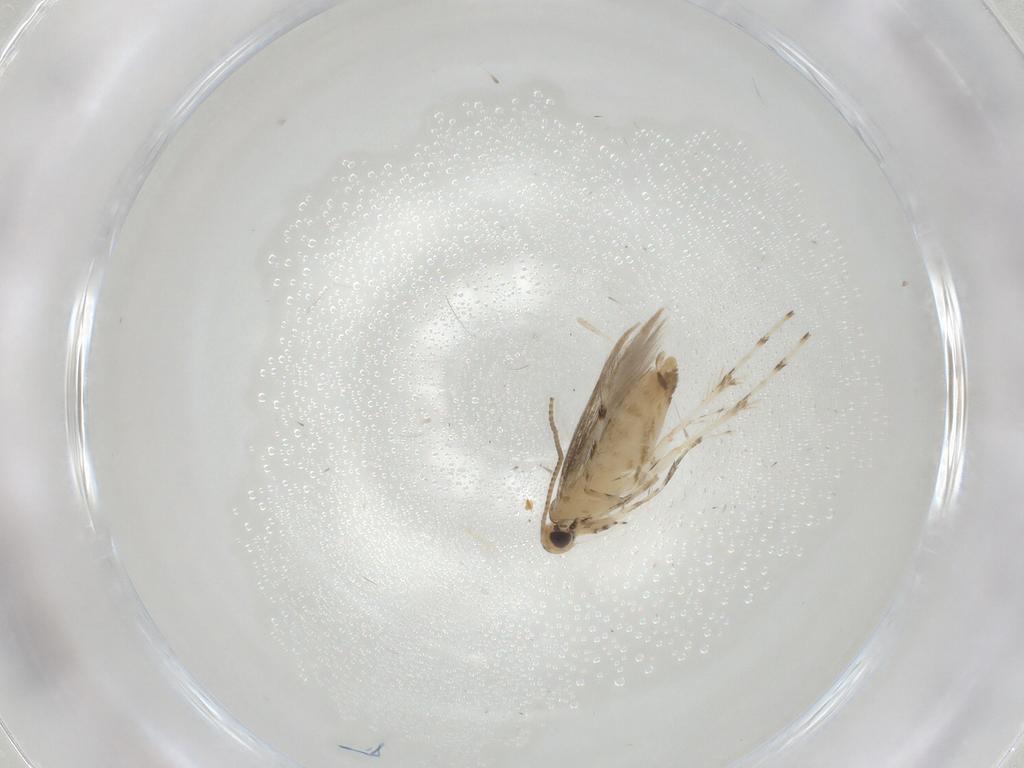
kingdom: Animalia
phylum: Arthropoda
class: Insecta
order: Lepidoptera
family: Gracillariidae
